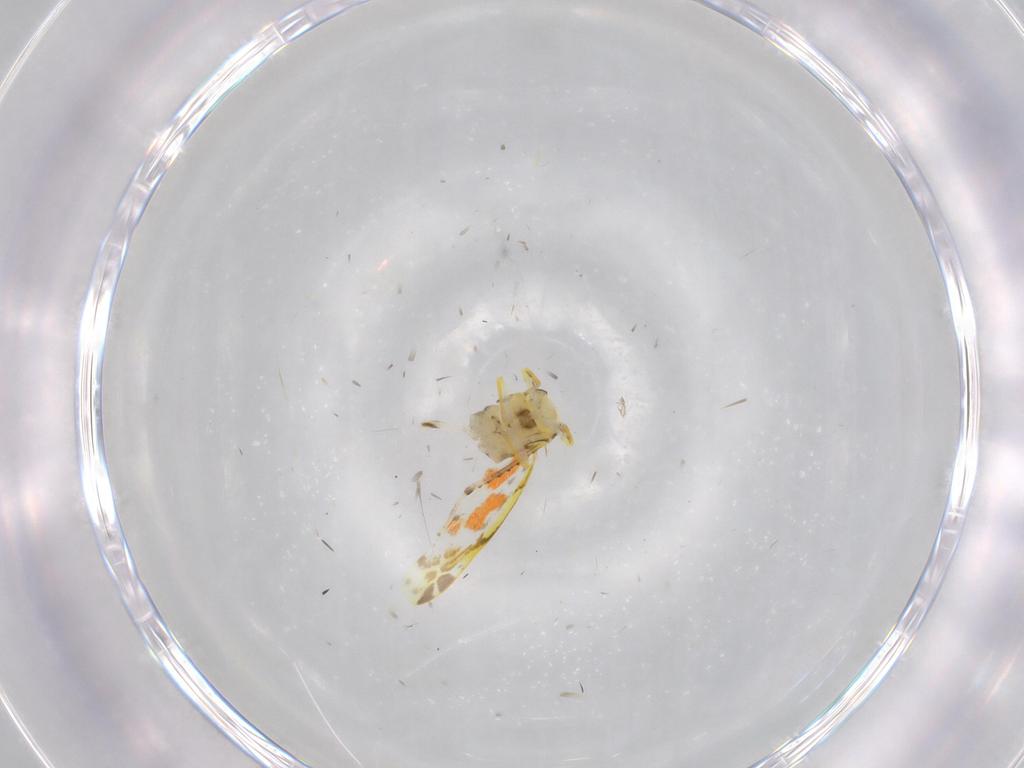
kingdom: Animalia
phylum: Arthropoda
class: Insecta
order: Hemiptera
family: Cicadellidae
